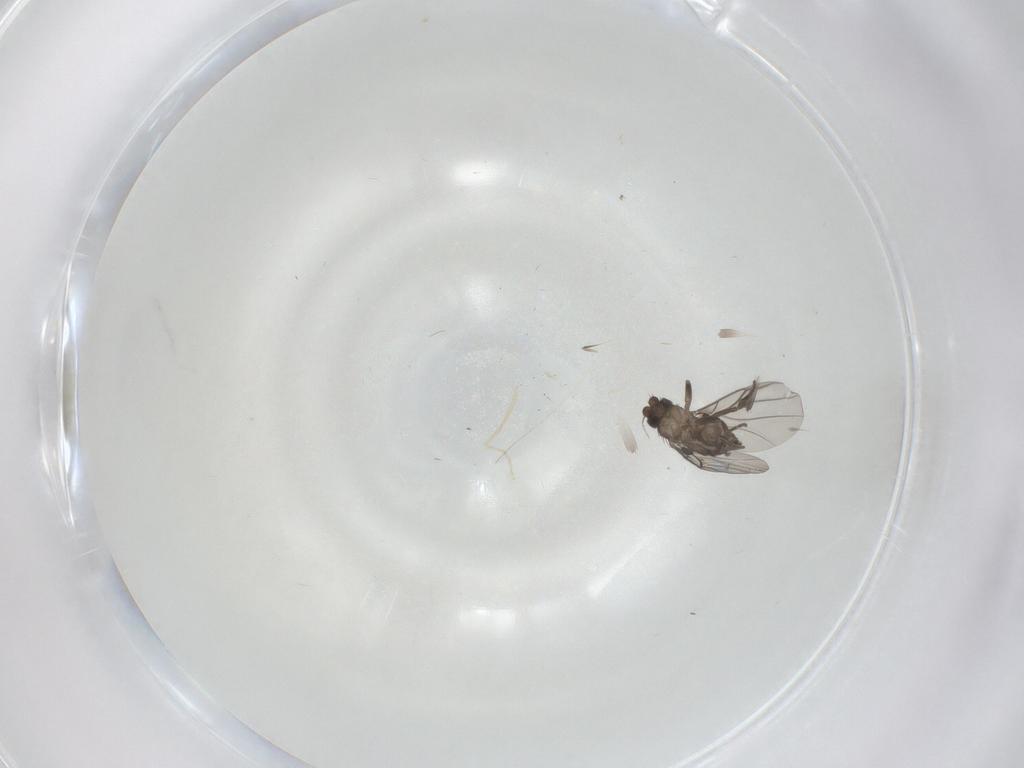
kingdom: Animalia
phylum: Arthropoda
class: Insecta
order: Diptera
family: Phoridae
